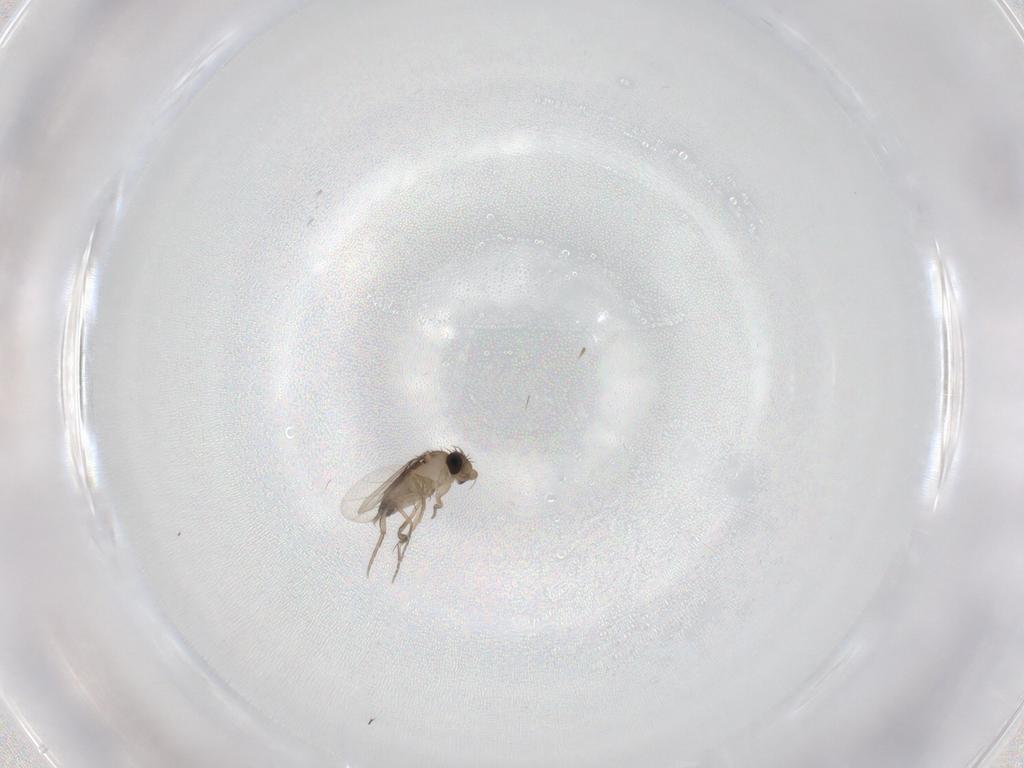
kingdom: Animalia
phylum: Arthropoda
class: Insecta
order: Diptera
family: Phoridae
